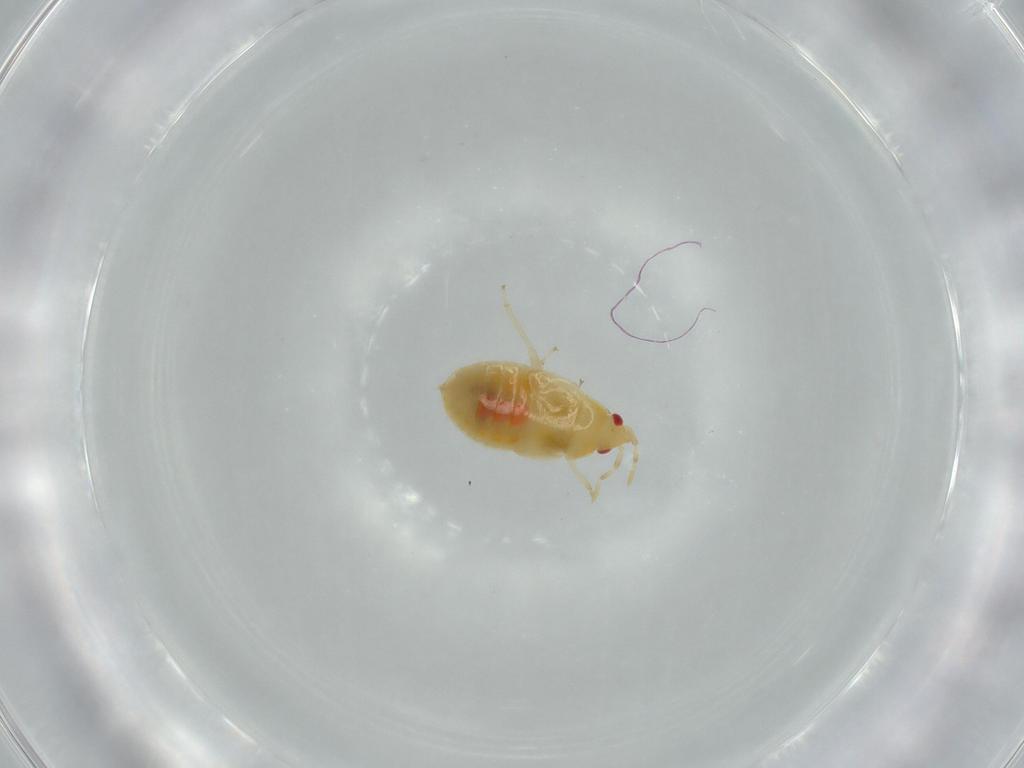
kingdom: Animalia
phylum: Arthropoda
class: Insecta
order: Hemiptera
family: Anthocoridae
